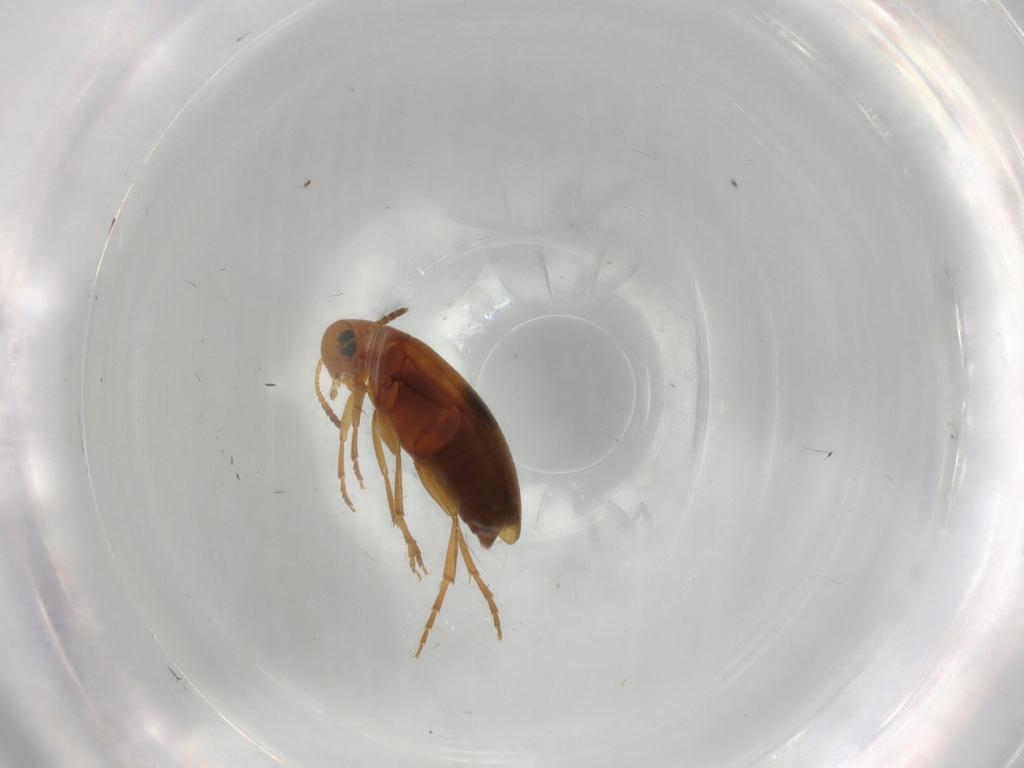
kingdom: Animalia
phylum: Arthropoda
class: Insecta
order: Coleoptera
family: Scraptiidae
